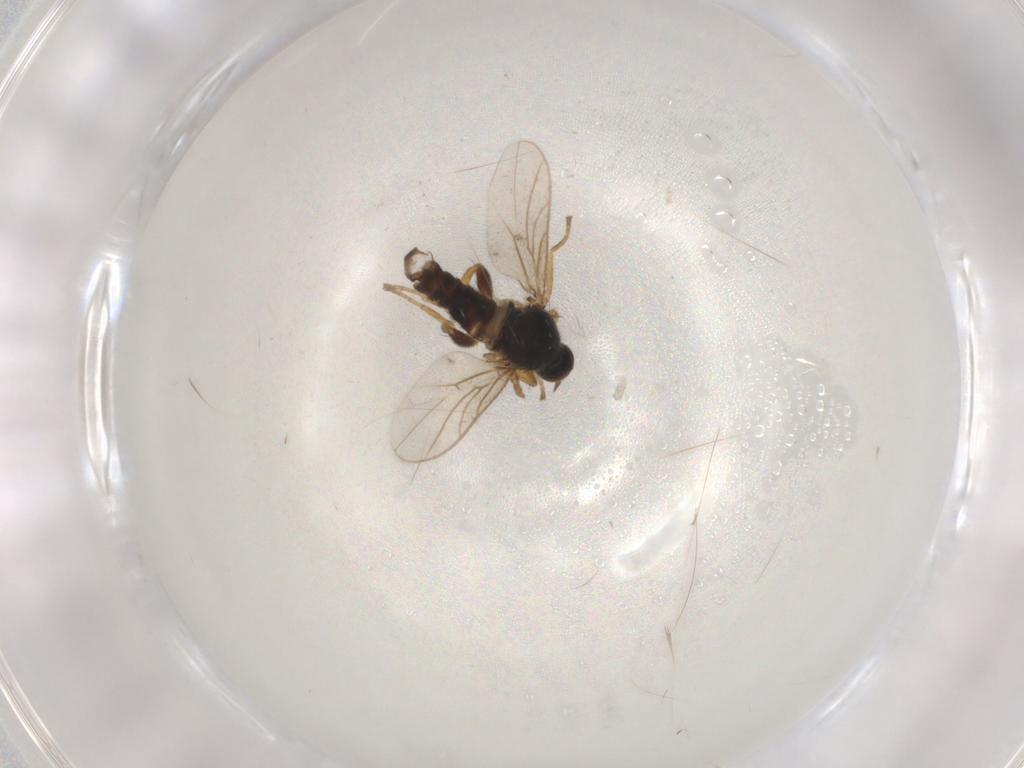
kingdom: Animalia
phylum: Arthropoda
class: Insecta
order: Diptera
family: Hybotidae
